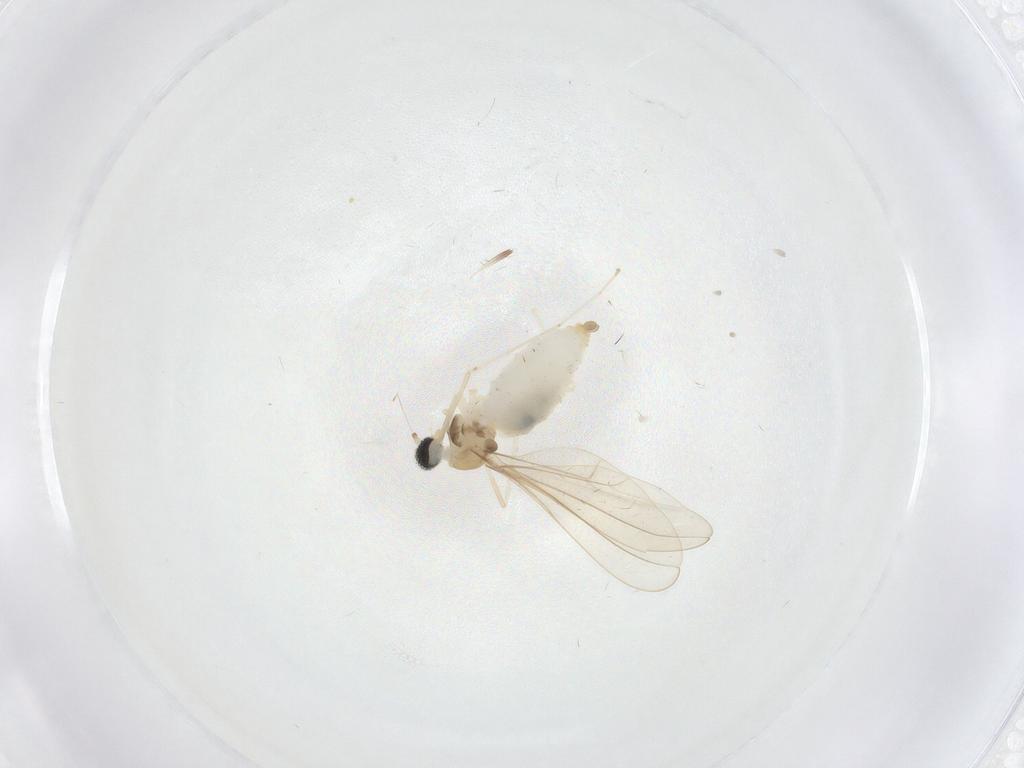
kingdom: Animalia
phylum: Arthropoda
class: Insecta
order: Diptera
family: Cecidomyiidae
